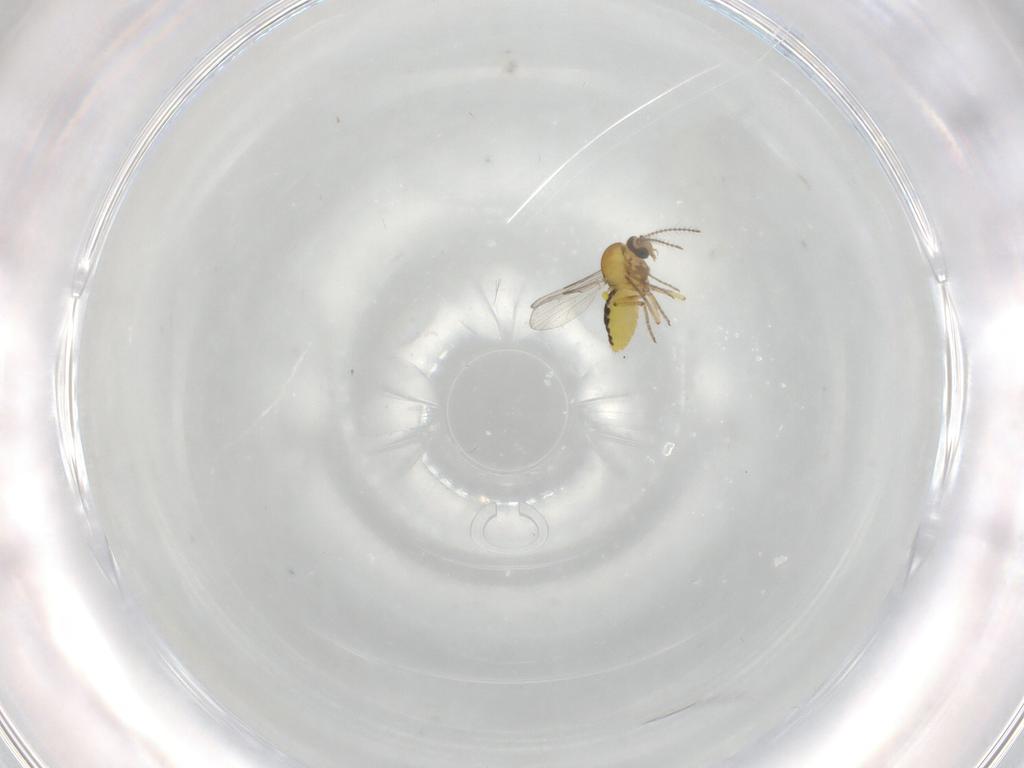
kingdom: Animalia
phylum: Arthropoda
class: Insecta
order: Diptera
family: Ceratopogonidae
